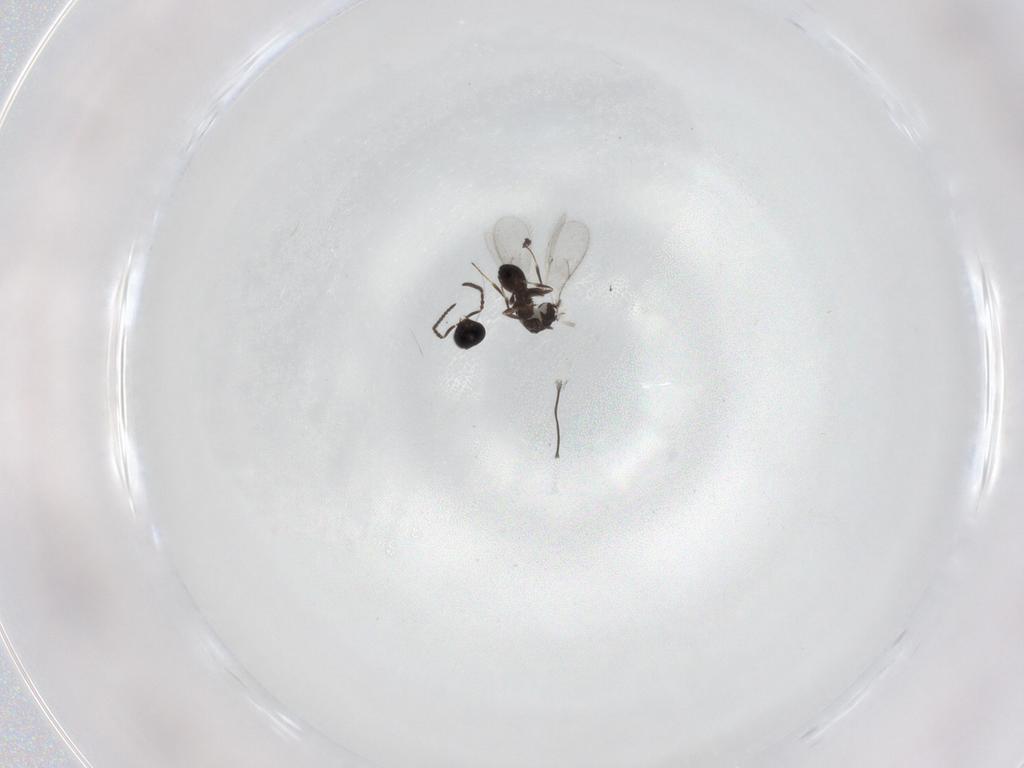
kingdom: Animalia
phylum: Arthropoda
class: Insecta
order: Hymenoptera
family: Scelionidae
